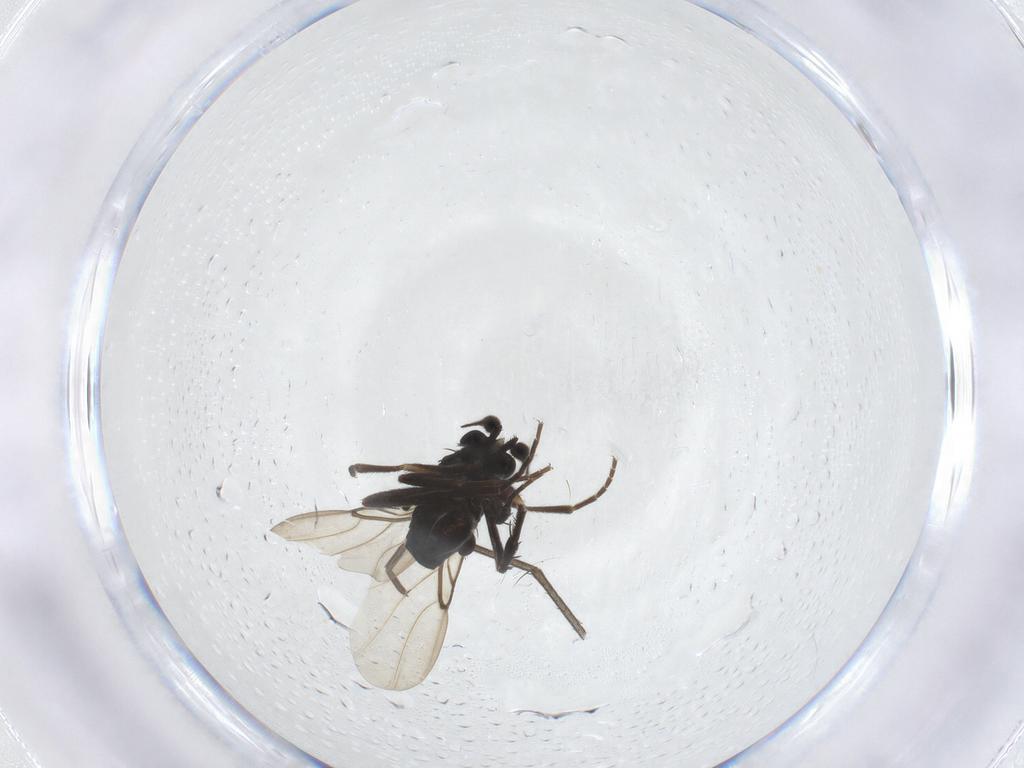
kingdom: Animalia
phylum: Arthropoda
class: Insecta
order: Diptera
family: Phoridae
